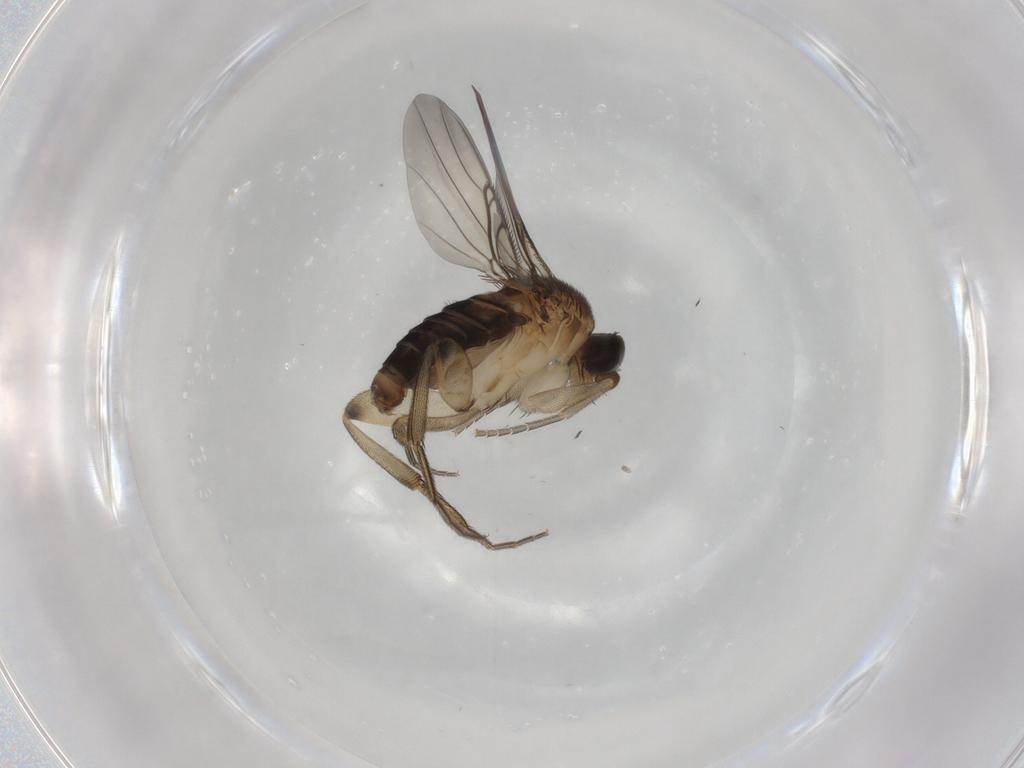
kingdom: Animalia
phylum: Arthropoda
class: Insecta
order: Diptera
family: Phoridae
